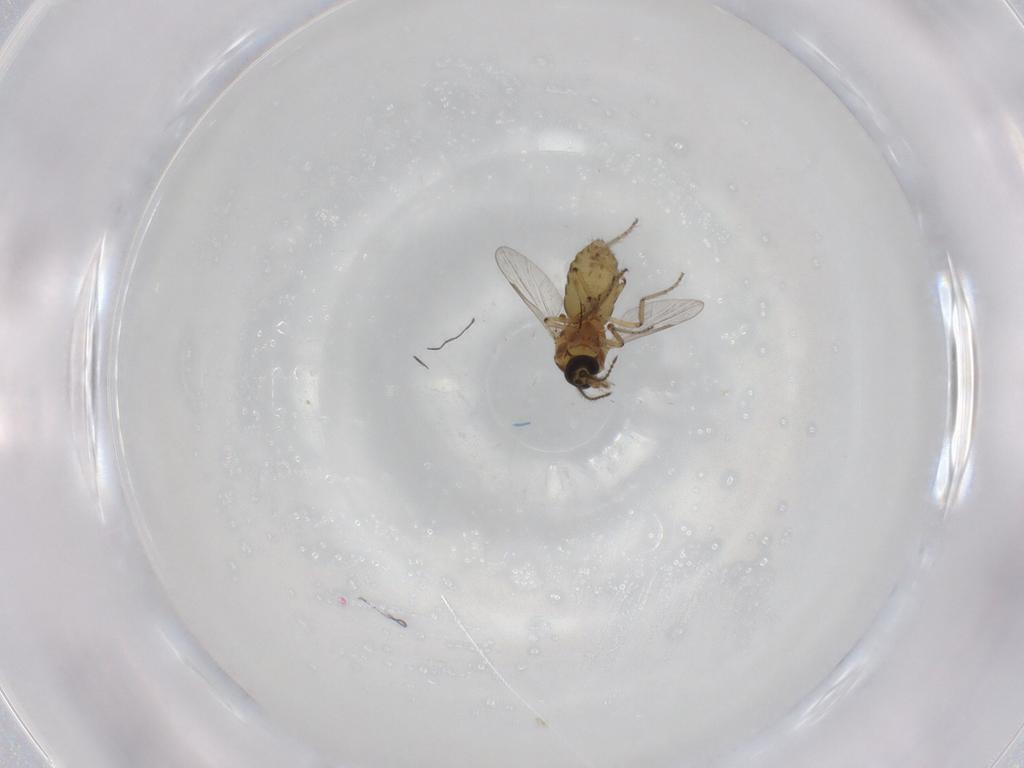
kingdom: Animalia
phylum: Arthropoda
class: Insecta
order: Diptera
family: Ceratopogonidae
